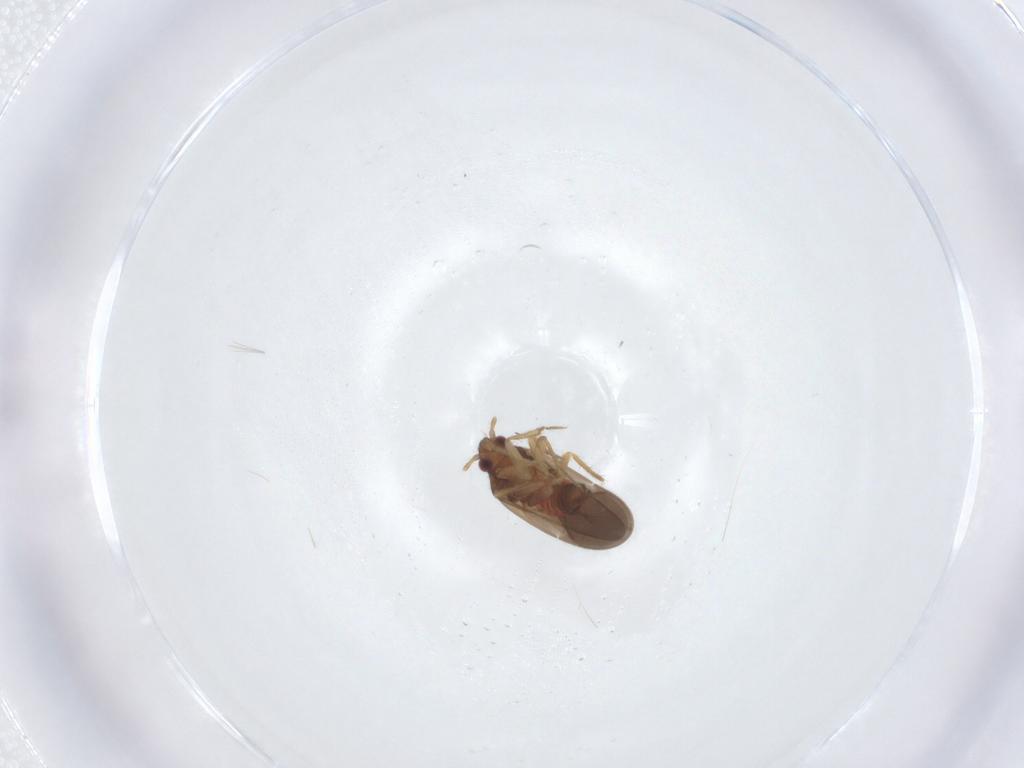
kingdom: Animalia
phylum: Arthropoda
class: Insecta
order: Hemiptera
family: Ceratocombidae
